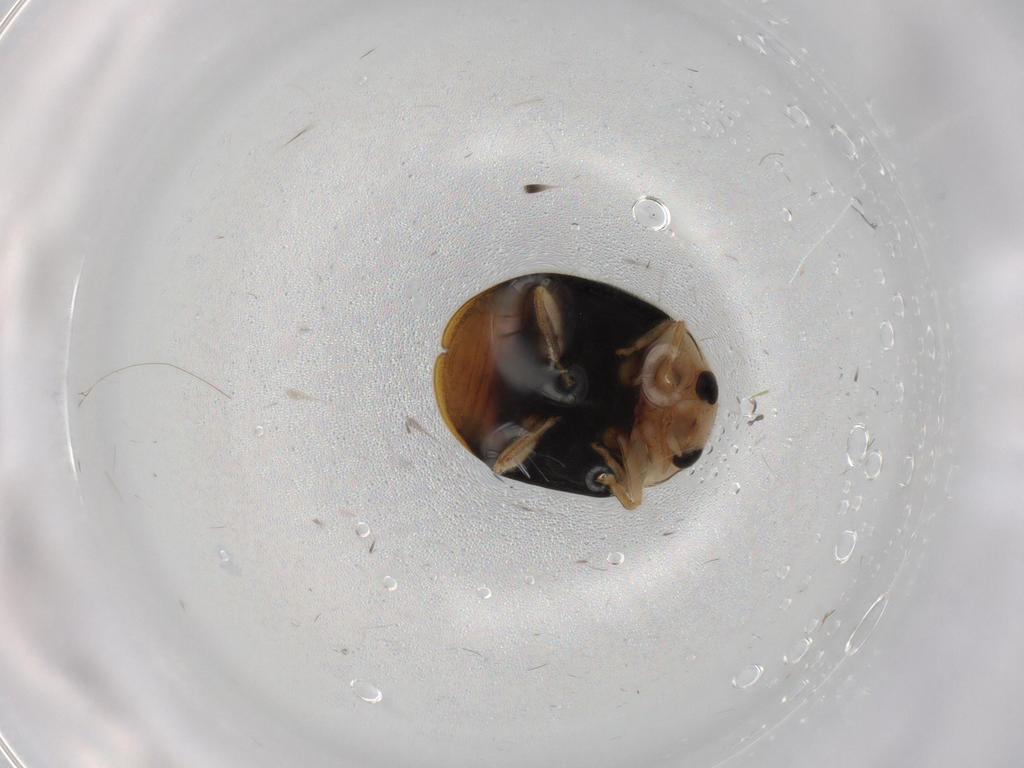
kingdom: Animalia
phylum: Arthropoda
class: Insecta
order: Coleoptera
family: Coccinellidae
